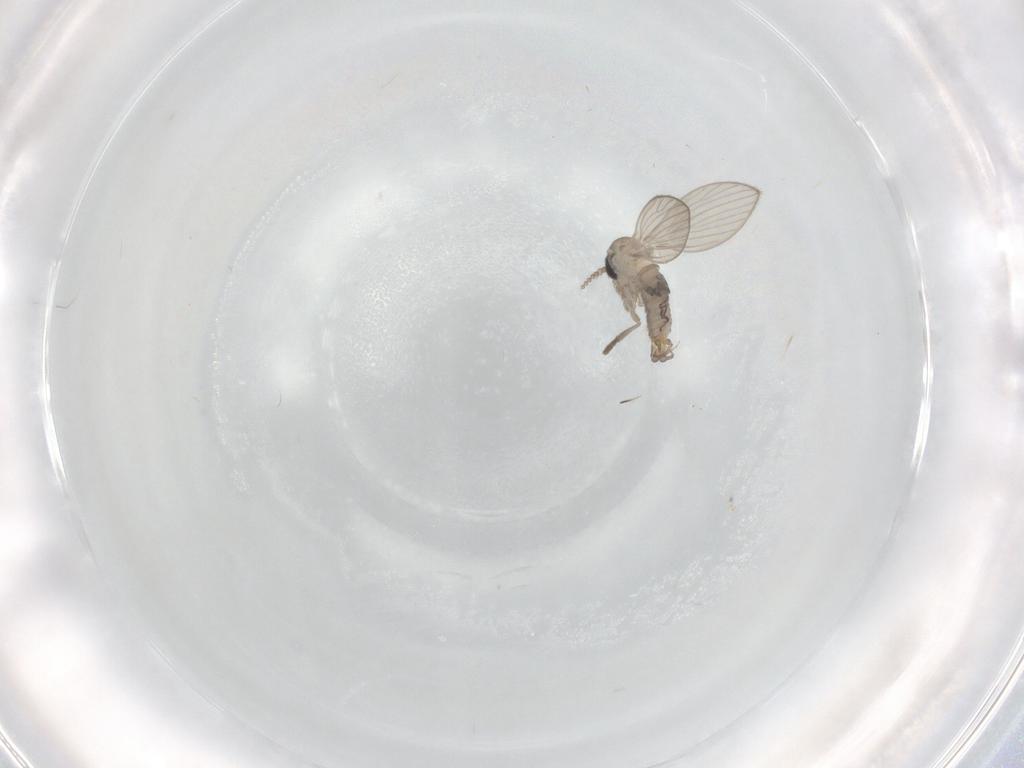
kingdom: Animalia
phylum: Arthropoda
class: Insecta
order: Diptera
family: Psychodidae
